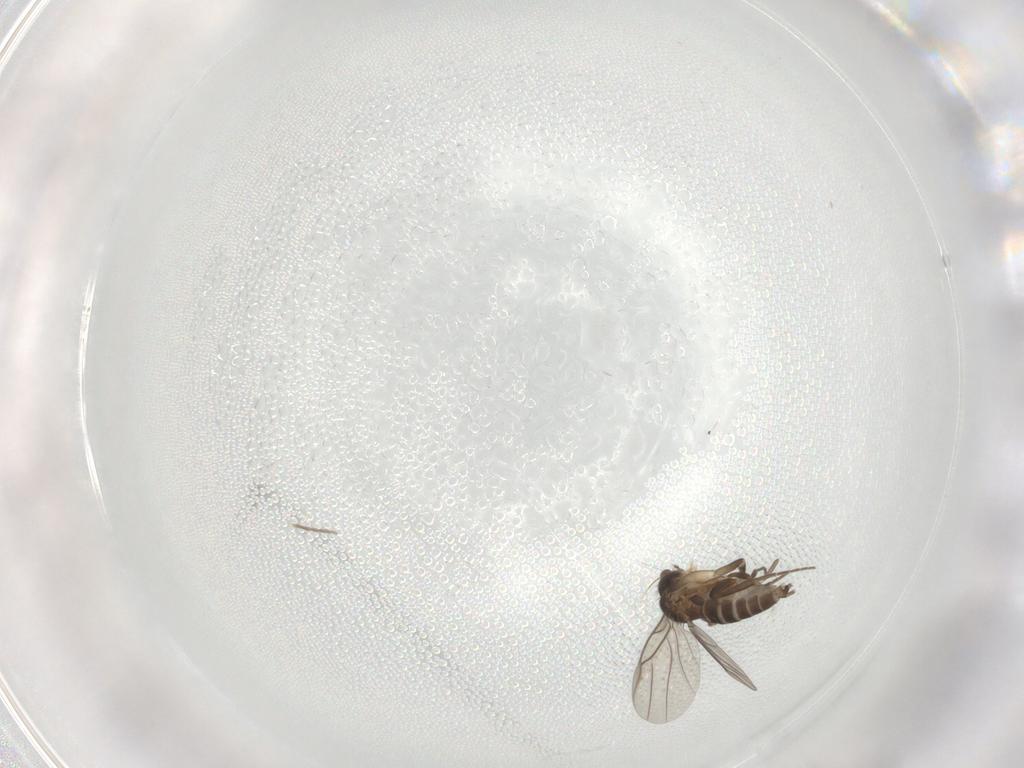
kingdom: Animalia
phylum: Arthropoda
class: Insecta
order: Diptera
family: Phoridae
